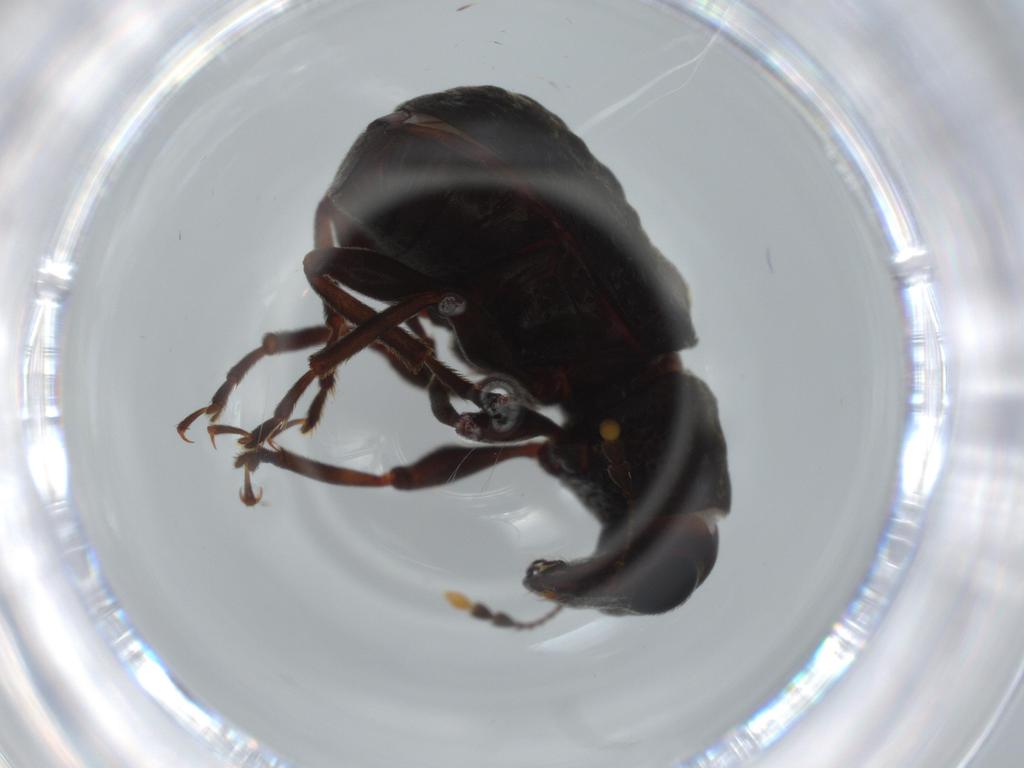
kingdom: Animalia
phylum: Arthropoda
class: Insecta
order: Coleoptera
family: Anthribidae
